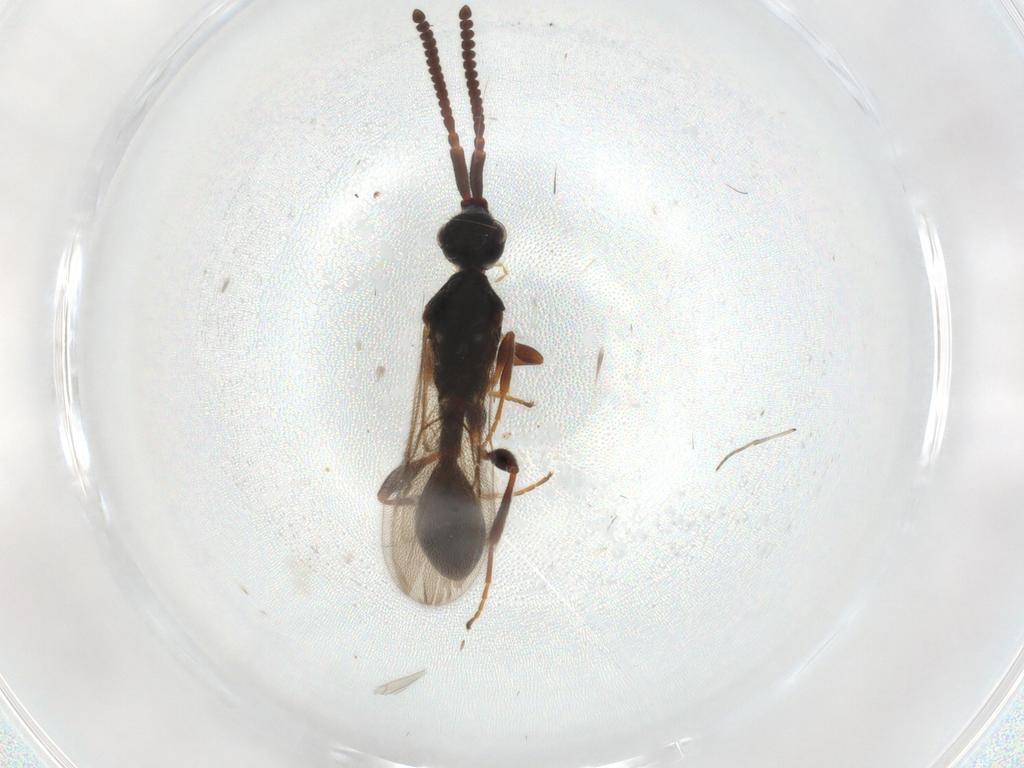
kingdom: Animalia
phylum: Arthropoda
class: Insecta
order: Hymenoptera
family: Diapriidae
